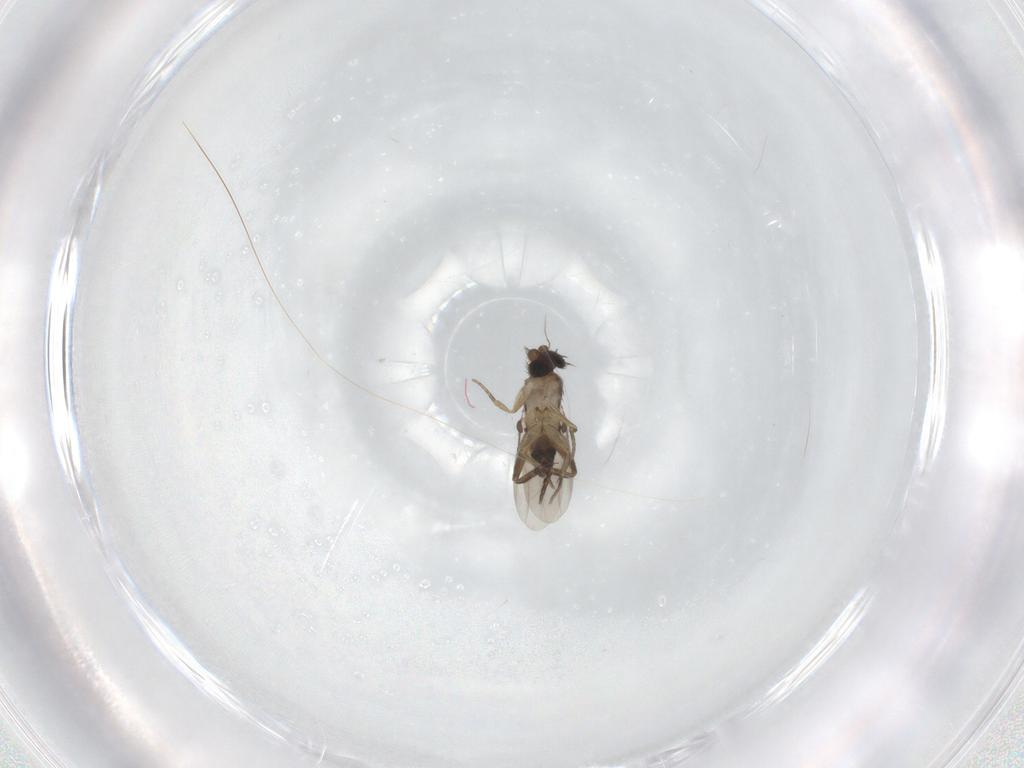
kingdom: Animalia
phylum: Arthropoda
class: Insecta
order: Diptera
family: Phoridae
